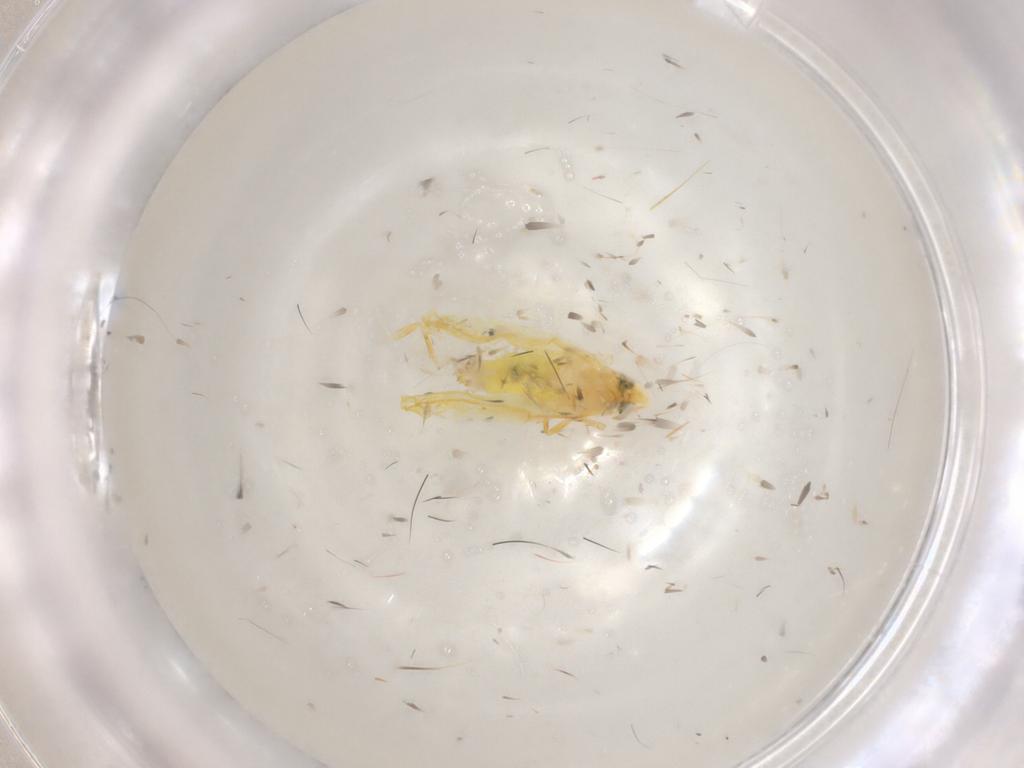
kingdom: Animalia
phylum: Arthropoda
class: Insecta
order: Hemiptera
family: Cicadellidae
